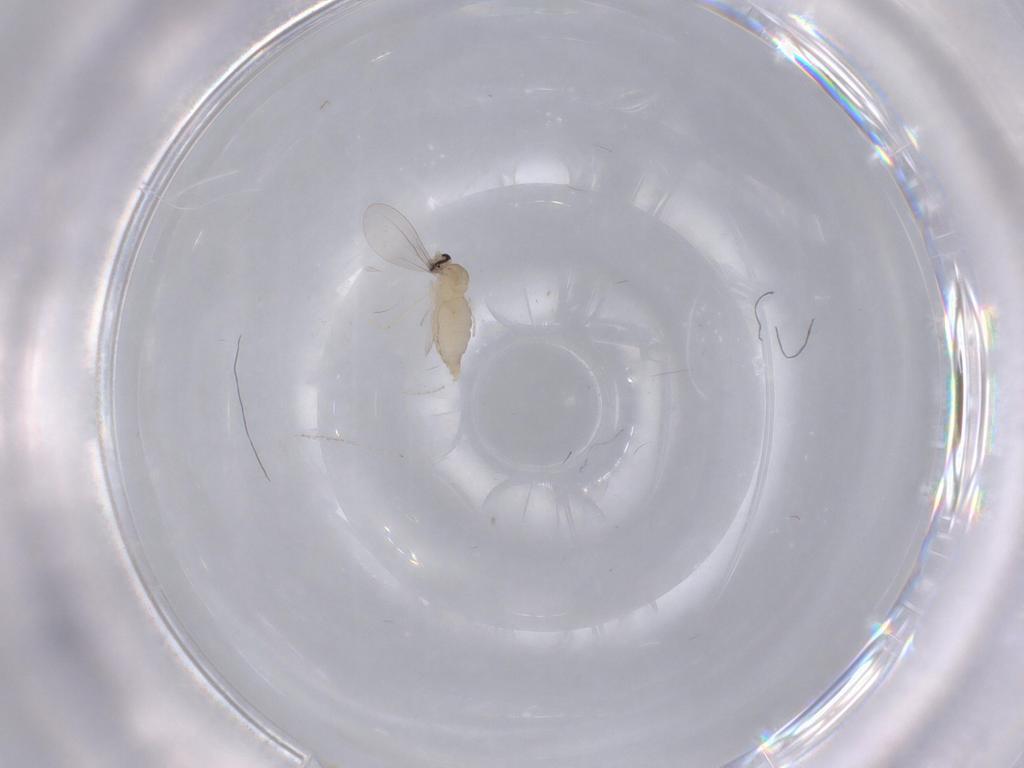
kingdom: Animalia
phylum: Arthropoda
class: Insecta
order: Diptera
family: Cecidomyiidae
